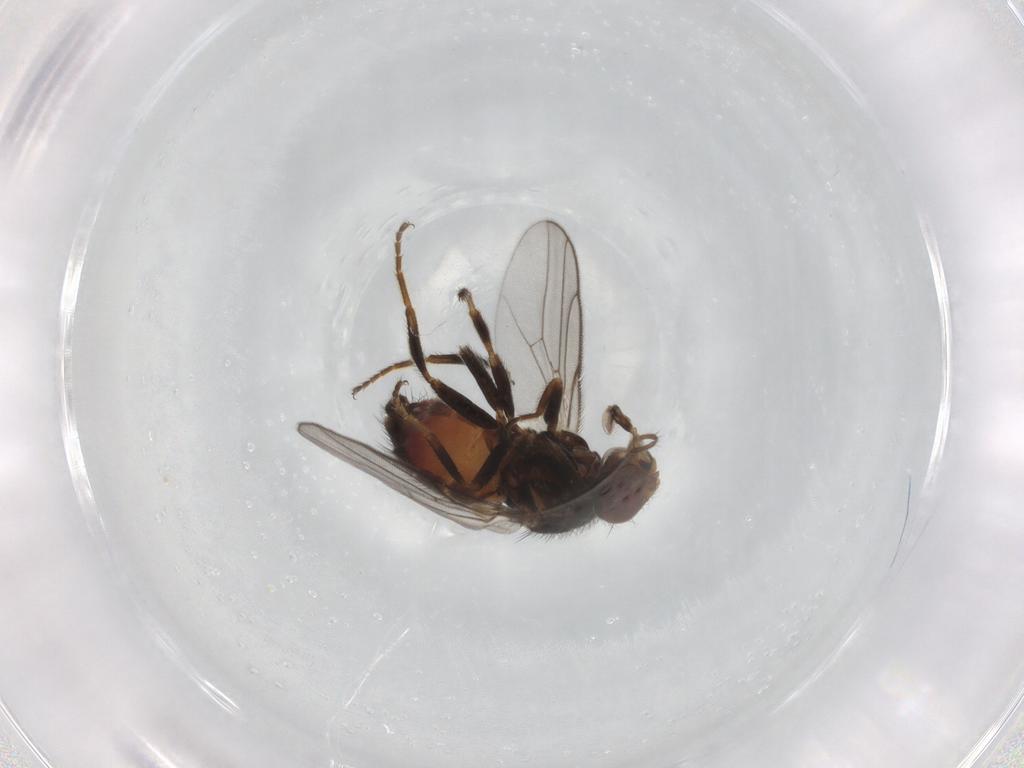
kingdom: Animalia
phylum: Arthropoda
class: Insecta
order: Diptera
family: Chloropidae
